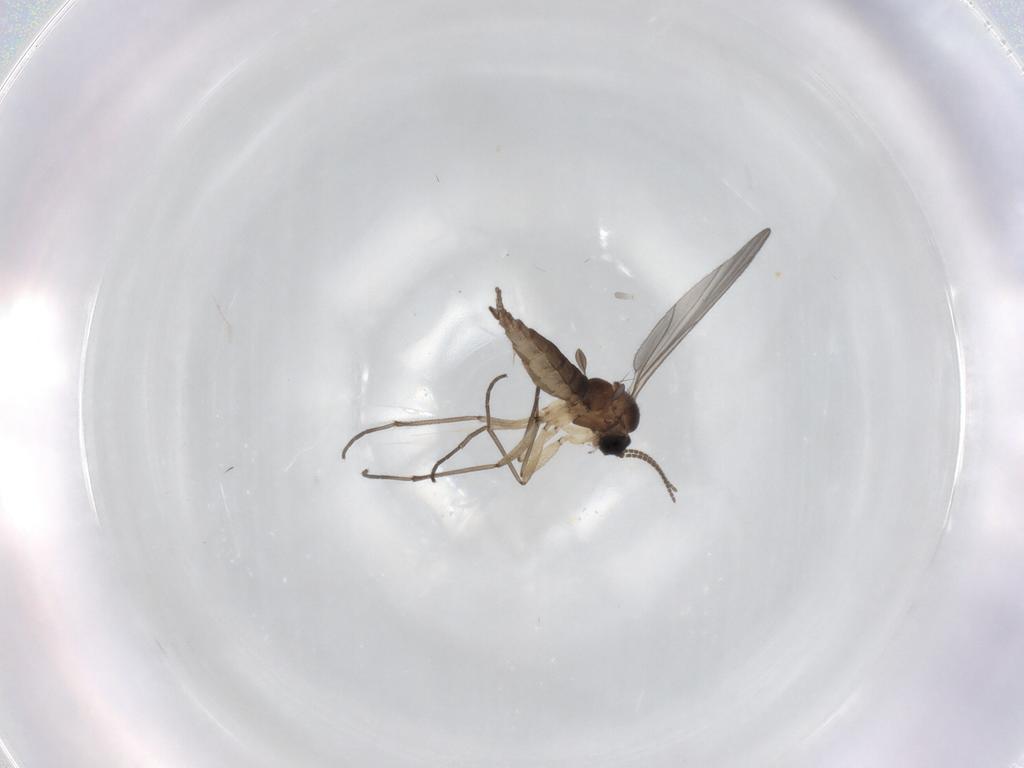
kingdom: Animalia
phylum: Arthropoda
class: Insecta
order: Diptera
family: Sciaridae
